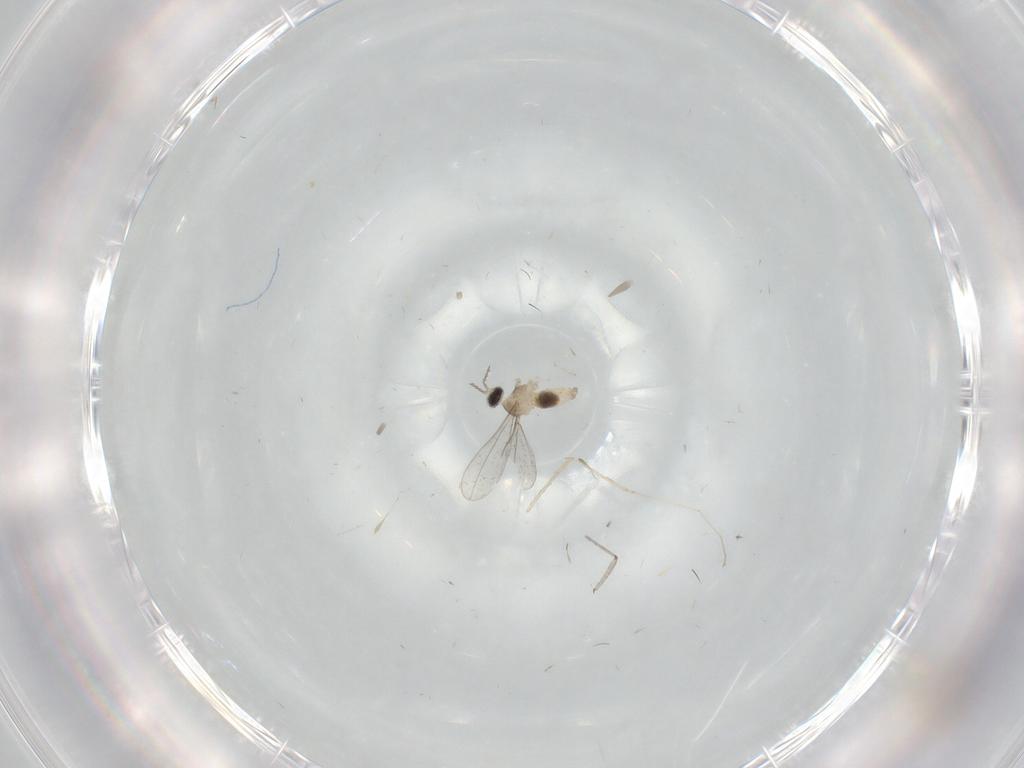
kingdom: Animalia
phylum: Arthropoda
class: Insecta
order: Diptera
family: Cecidomyiidae
